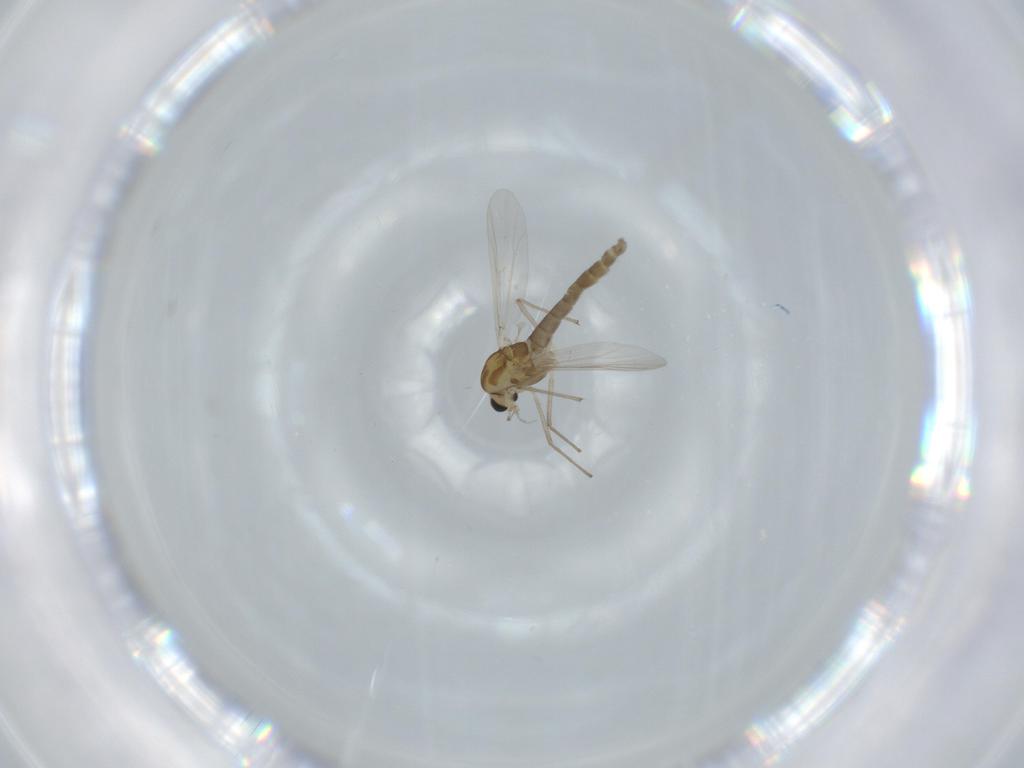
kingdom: Animalia
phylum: Arthropoda
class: Insecta
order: Diptera
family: Chironomidae
